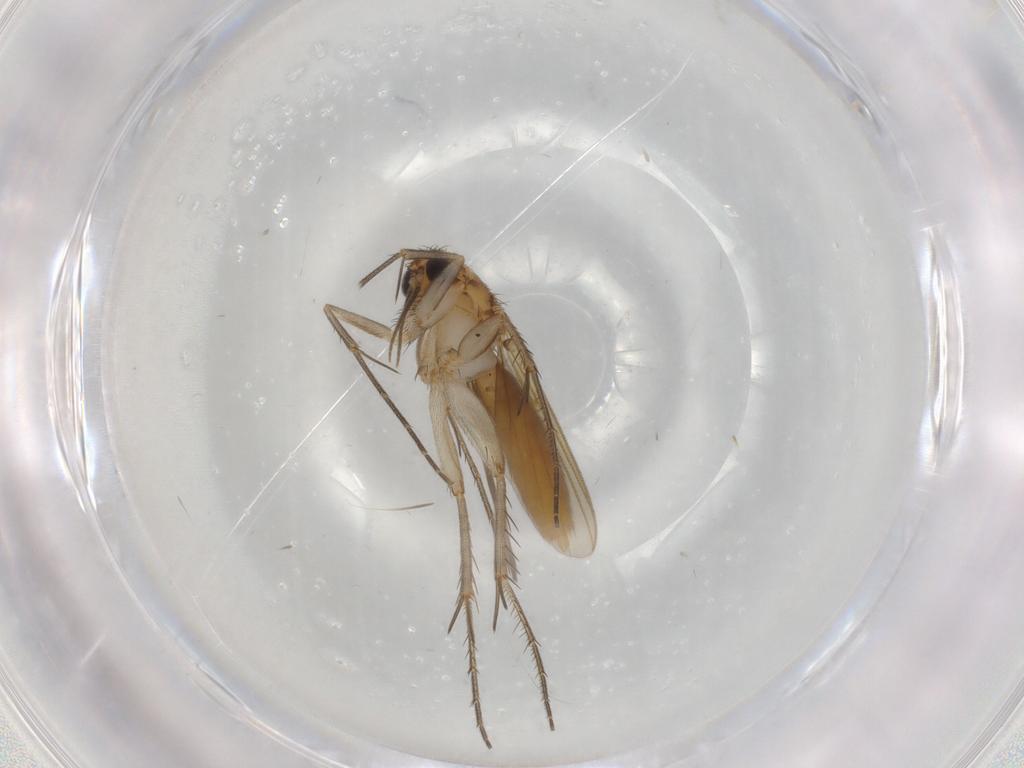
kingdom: Animalia
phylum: Arthropoda
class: Insecta
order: Diptera
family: Mycetophilidae
